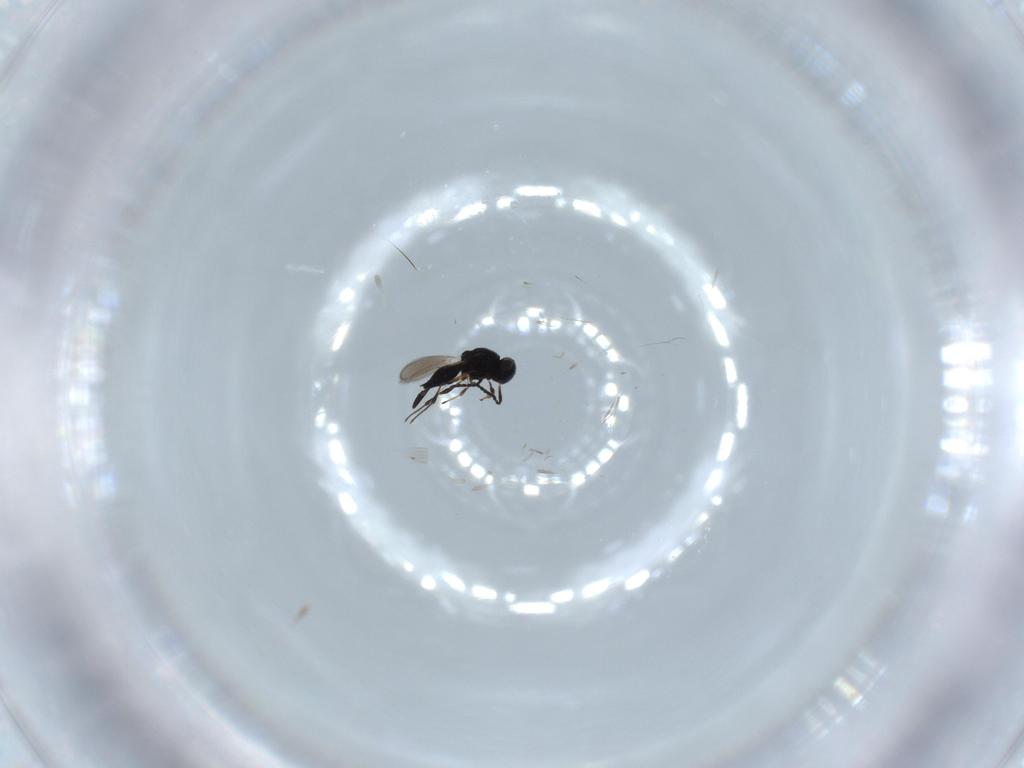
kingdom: Animalia
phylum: Arthropoda
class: Insecta
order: Hymenoptera
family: Platygastridae
